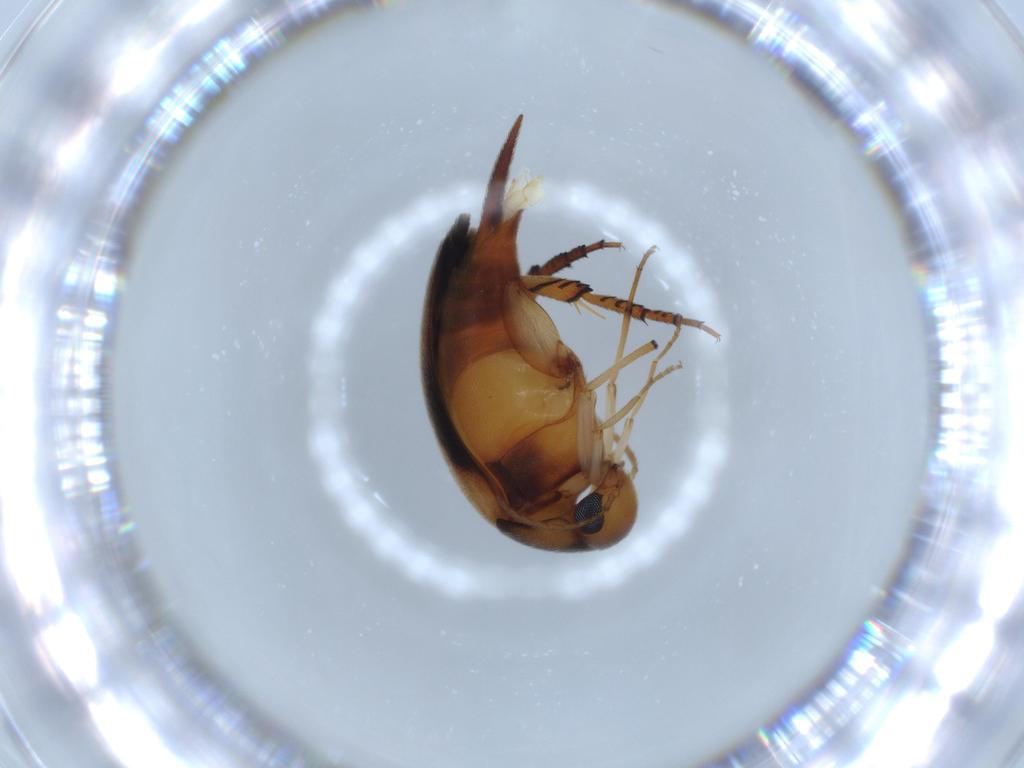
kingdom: Animalia
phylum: Arthropoda
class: Insecta
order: Coleoptera
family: Mordellidae
